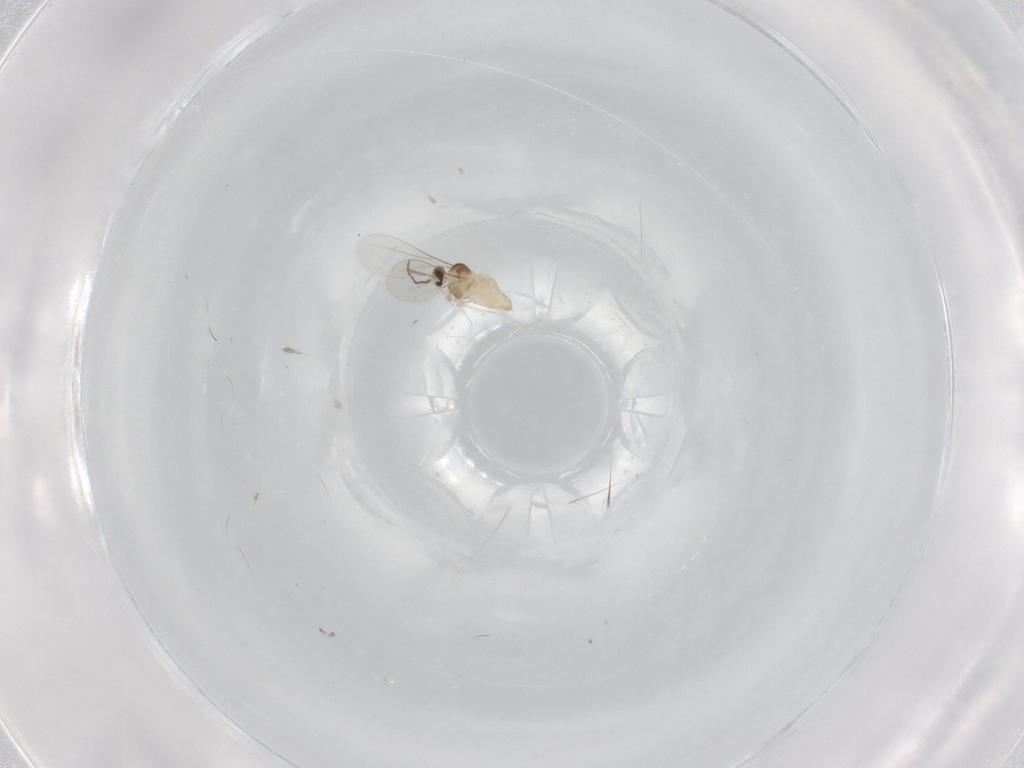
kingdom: Animalia
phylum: Arthropoda
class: Insecta
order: Diptera
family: Cecidomyiidae
